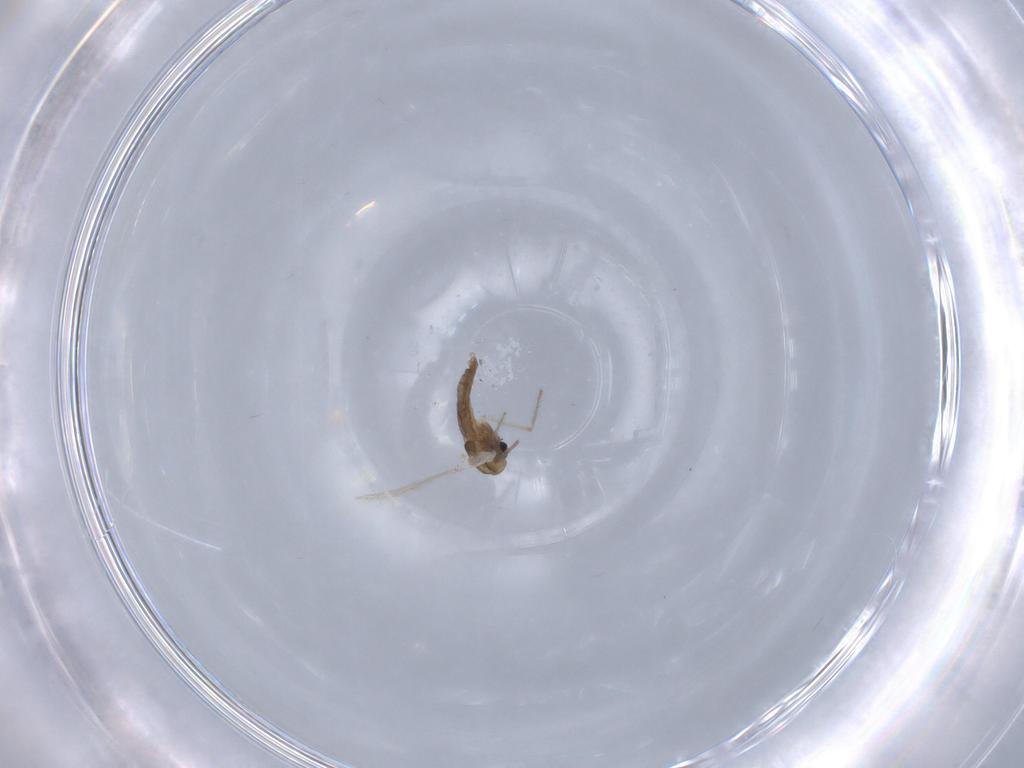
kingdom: Animalia
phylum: Arthropoda
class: Insecta
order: Diptera
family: Chironomidae
